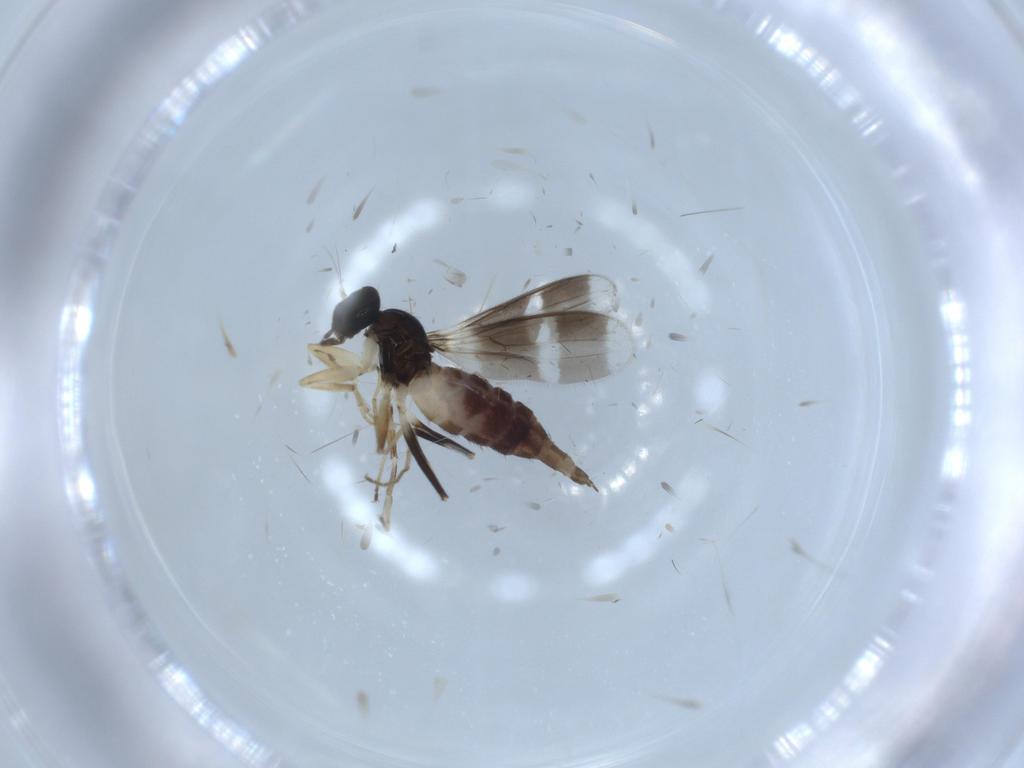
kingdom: Animalia
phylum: Arthropoda
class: Insecta
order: Diptera
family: Hybotidae
